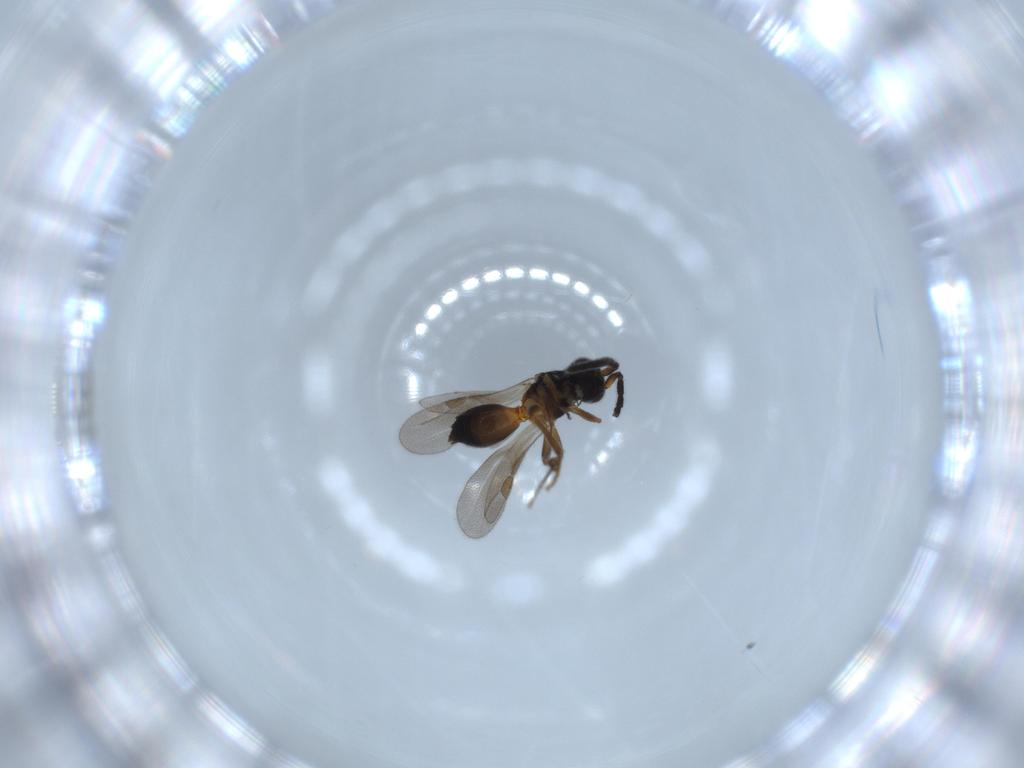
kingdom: Animalia
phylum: Arthropoda
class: Insecta
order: Hymenoptera
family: Megaspilidae
